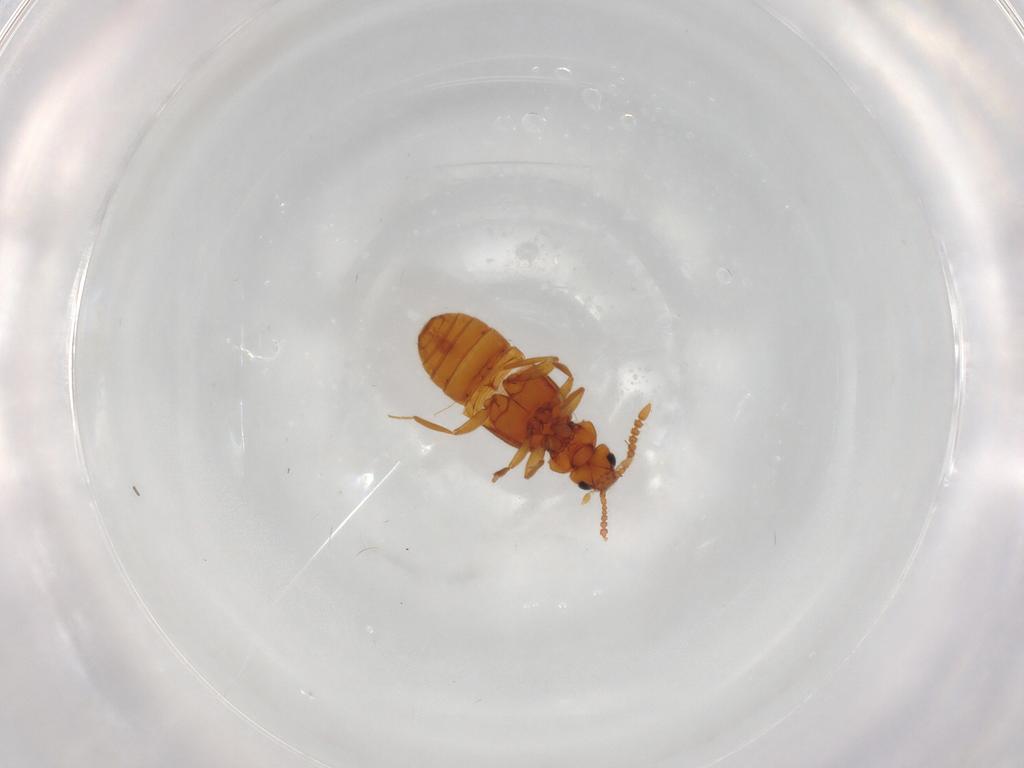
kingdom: Animalia
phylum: Arthropoda
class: Insecta
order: Coleoptera
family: Staphylinidae
